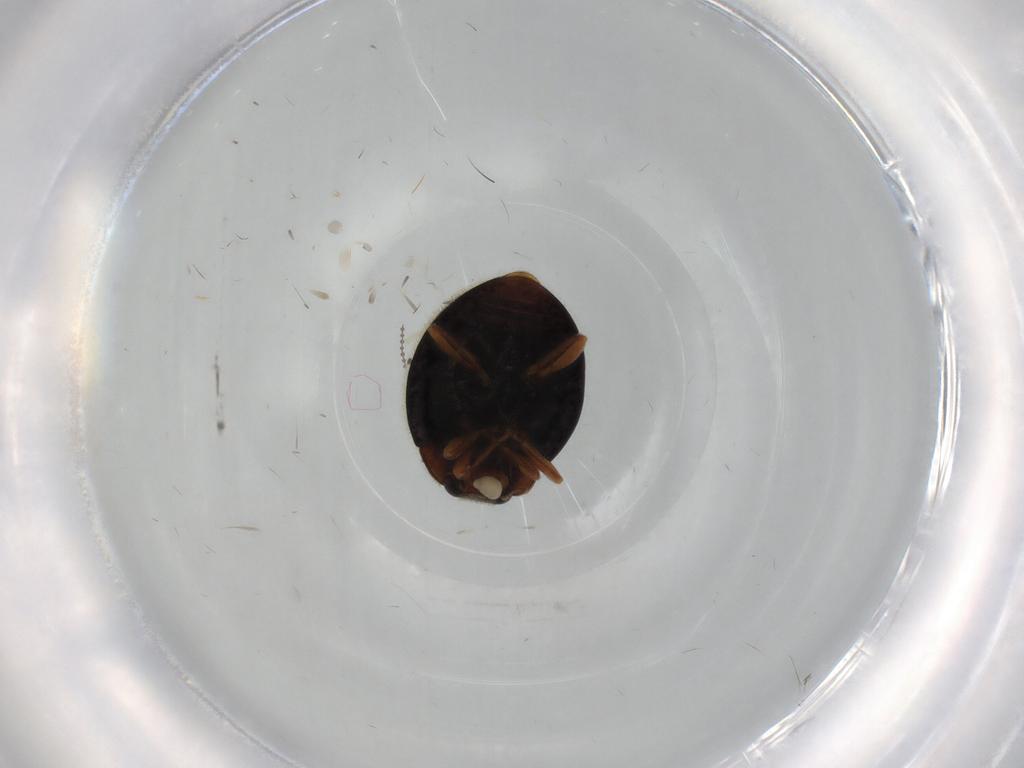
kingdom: Animalia
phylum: Arthropoda
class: Insecta
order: Coleoptera
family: Coccinellidae
